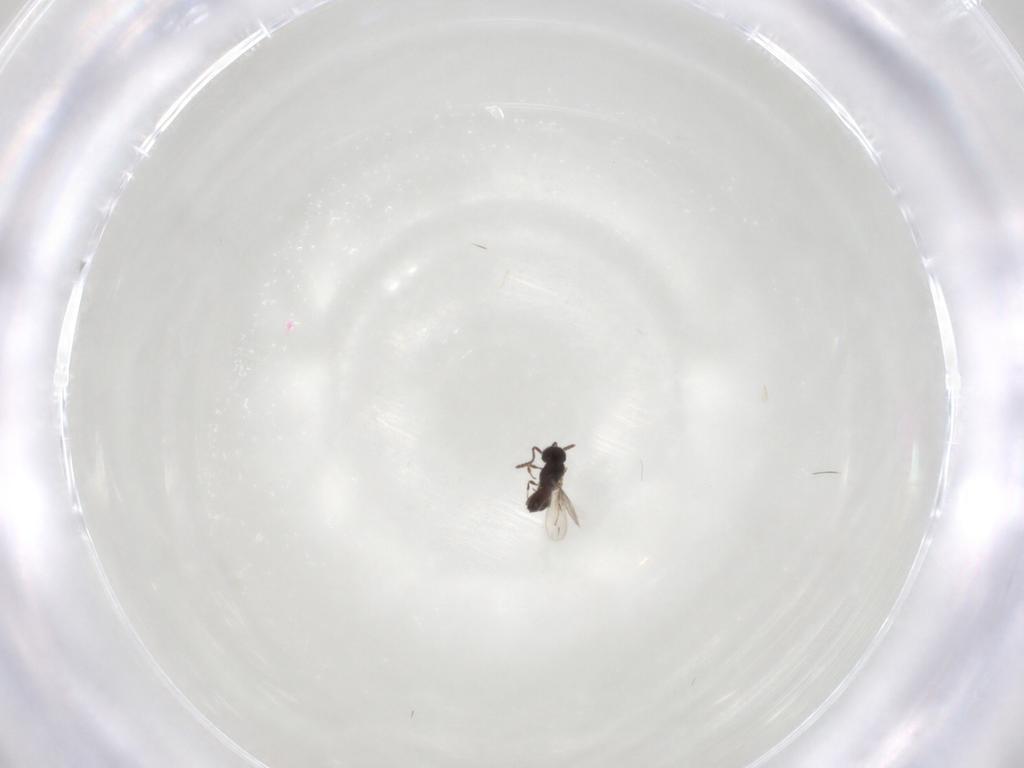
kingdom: Animalia
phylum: Arthropoda
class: Insecta
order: Hymenoptera
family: Scelionidae
